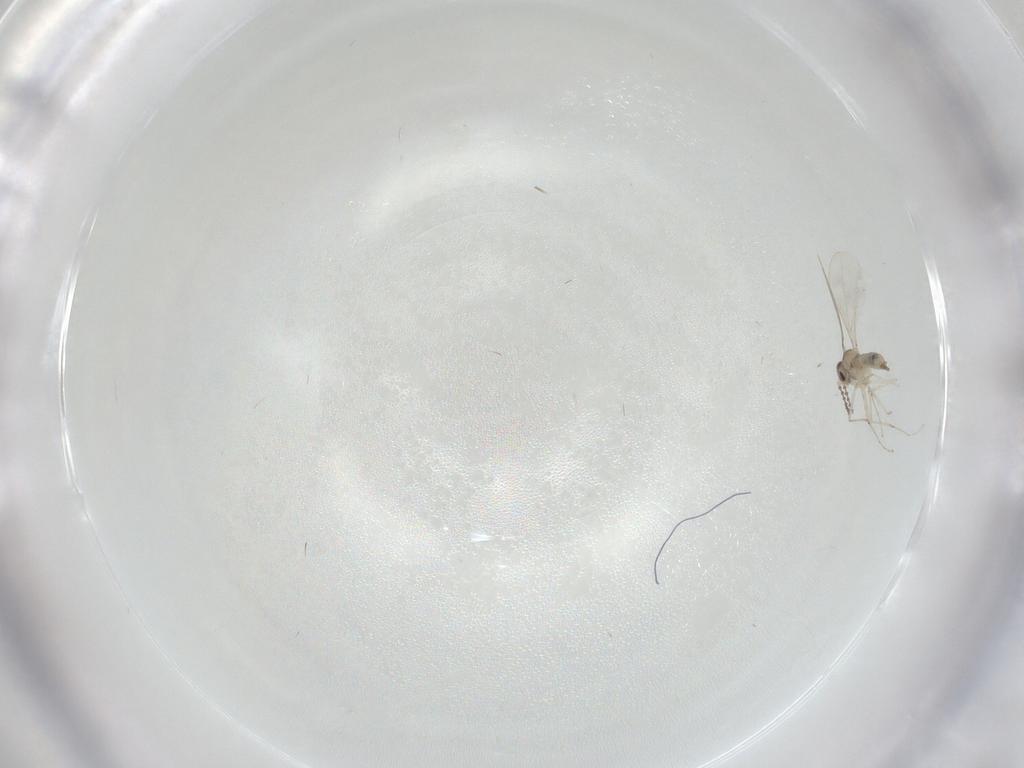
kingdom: Animalia
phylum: Arthropoda
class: Insecta
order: Diptera
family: Cecidomyiidae
